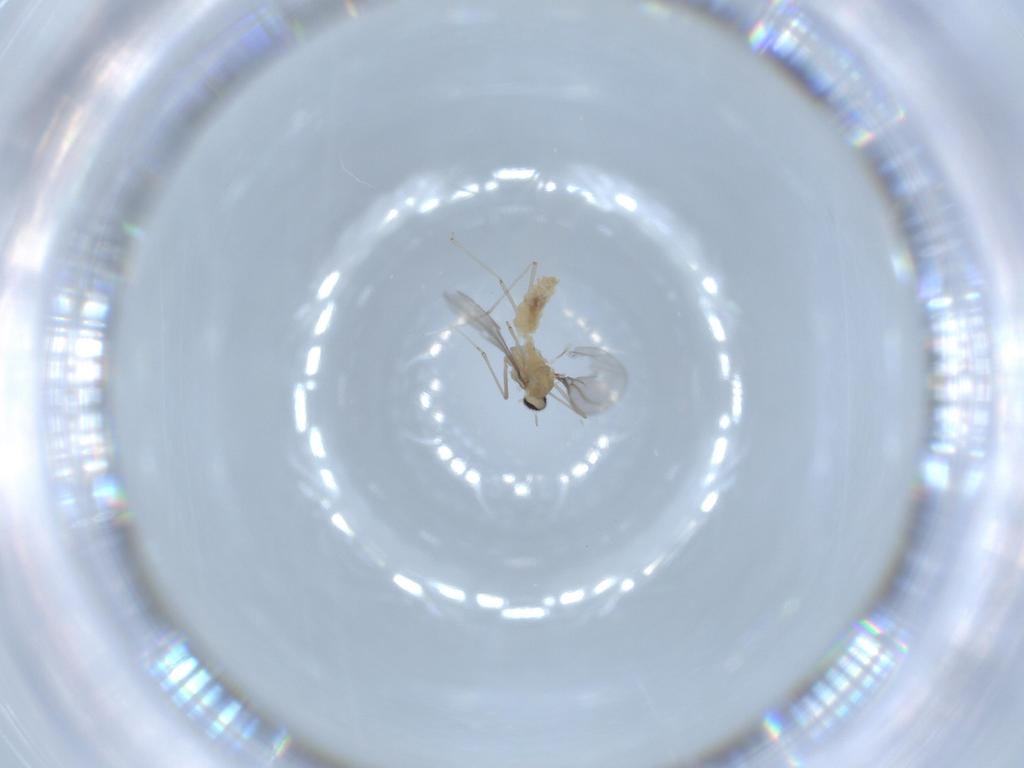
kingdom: Animalia
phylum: Arthropoda
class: Insecta
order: Diptera
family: Cecidomyiidae
